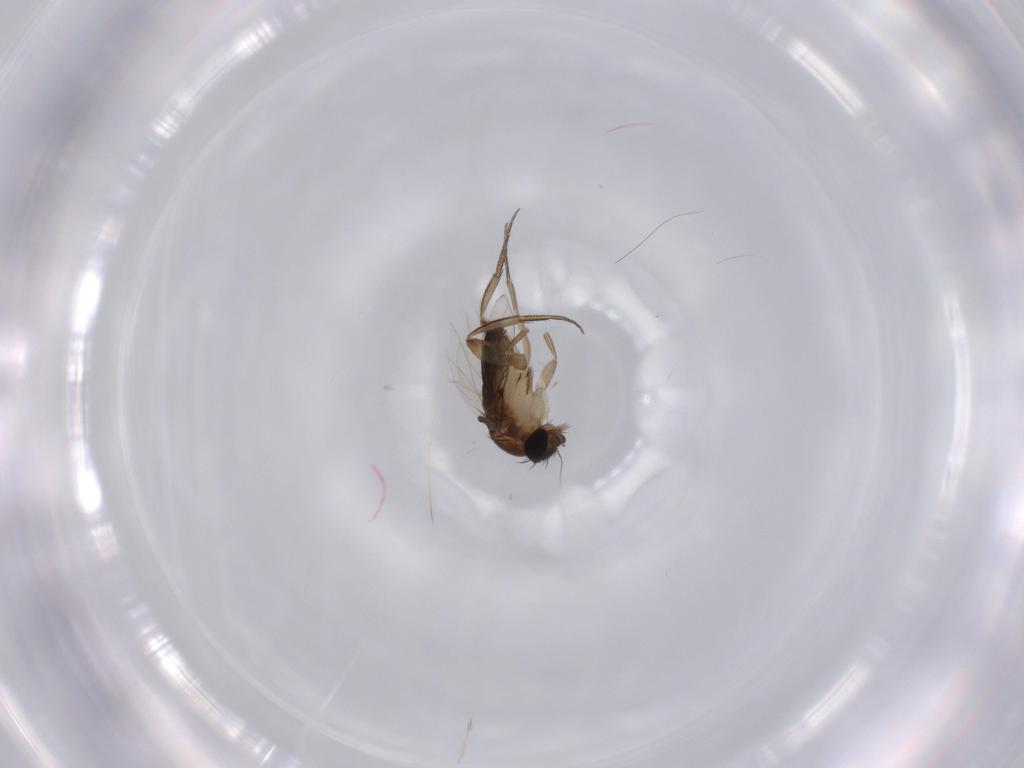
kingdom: Animalia
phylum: Arthropoda
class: Insecta
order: Diptera
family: Phoridae
